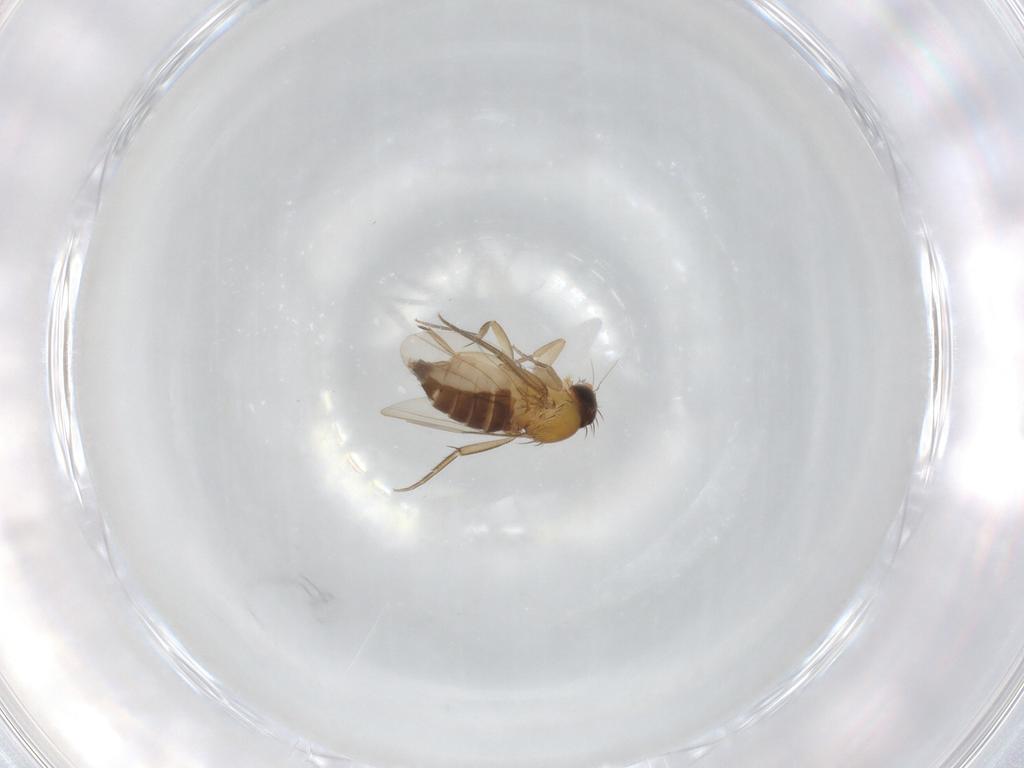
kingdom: Animalia
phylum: Arthropoda
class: Insecta
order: Diptera
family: Phoridae
